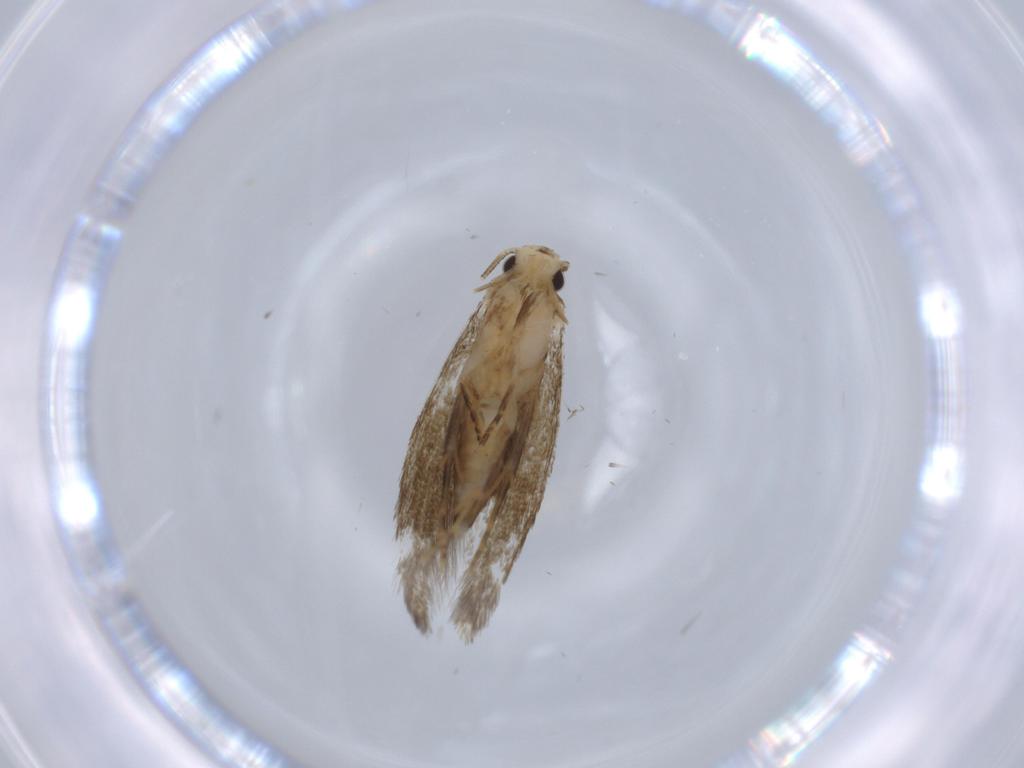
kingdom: Animalia
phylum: Arthropoda
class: Insecta
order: Lepidoptera
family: Tineidae
